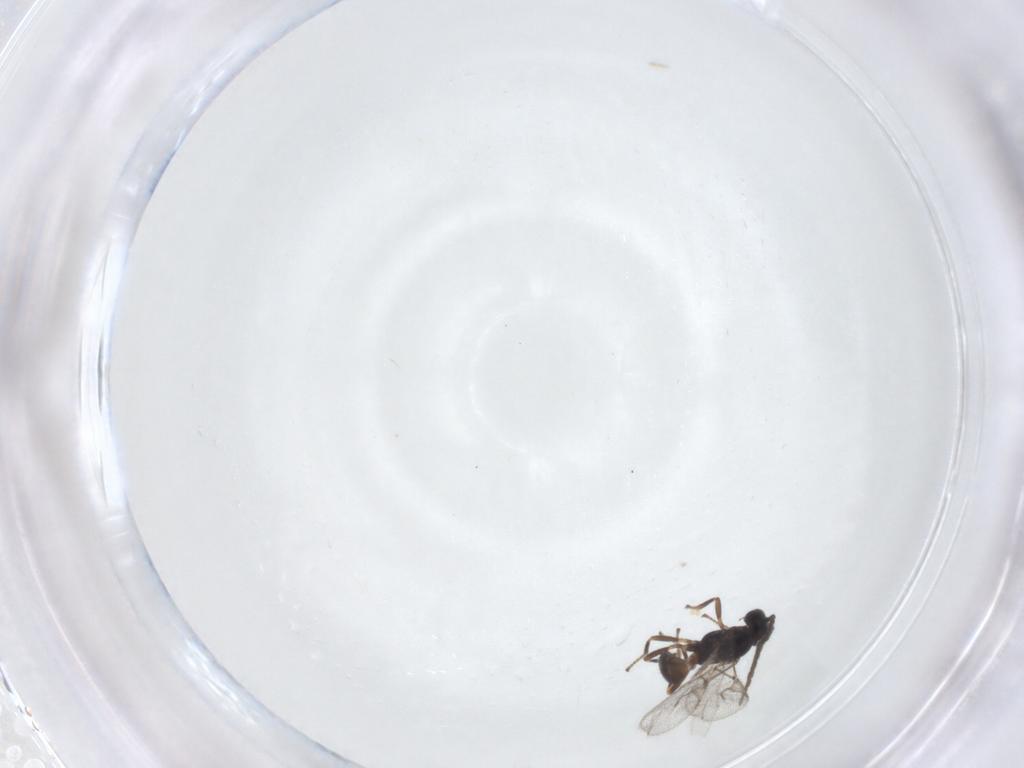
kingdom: Animalia
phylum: Arthropoda
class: Insecta
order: Hymenoptera
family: Braconidae
